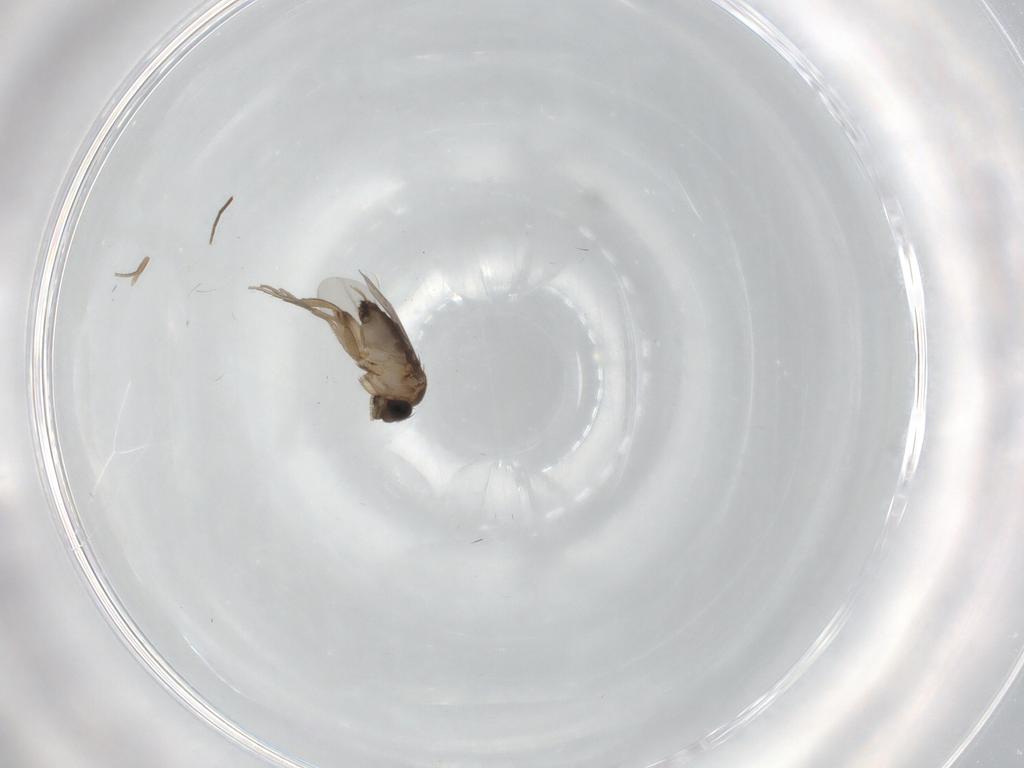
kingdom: Animalia
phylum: Arthropoda
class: Insecta
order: Diptera
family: Phoridae
